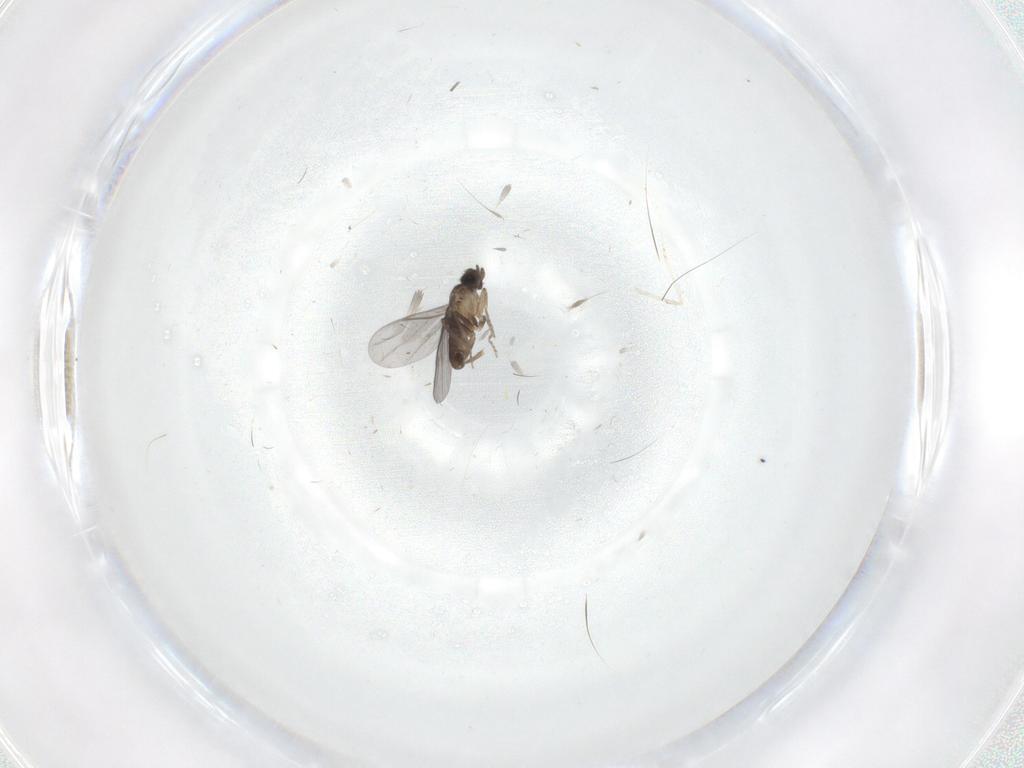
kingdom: Animalia
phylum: Arthropoda
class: Insecta
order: Diptera
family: Cecidomyiidae
